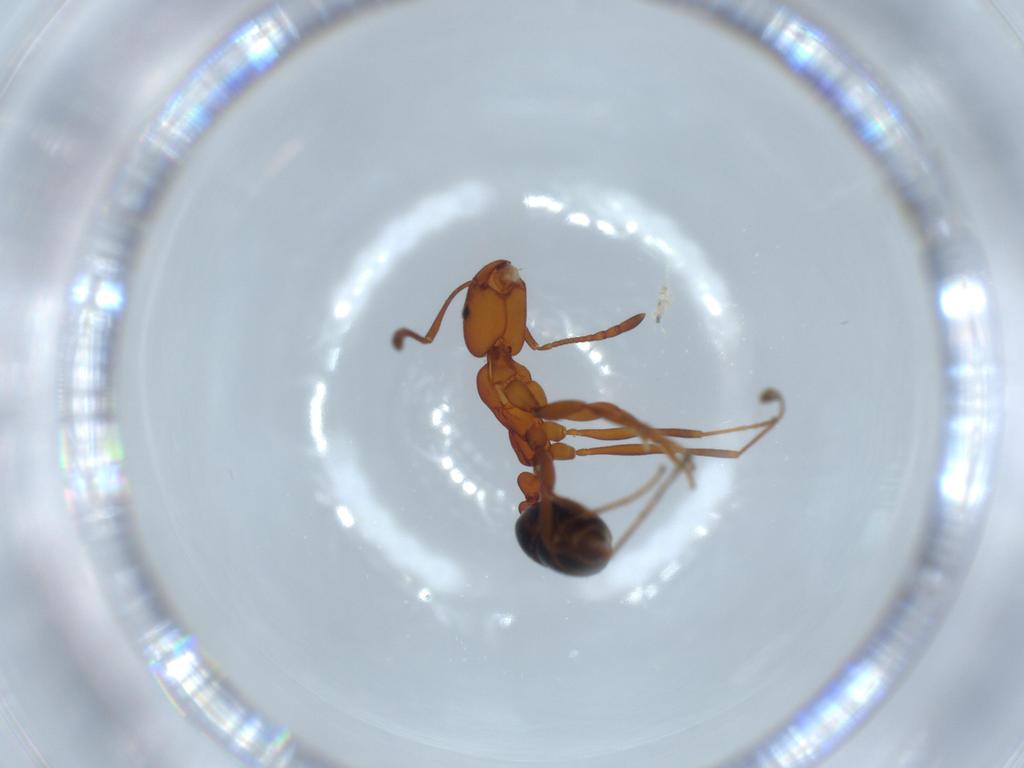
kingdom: Animalia
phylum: Arthropoda
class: Insecta
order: Hymenoptera
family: Formicidae
